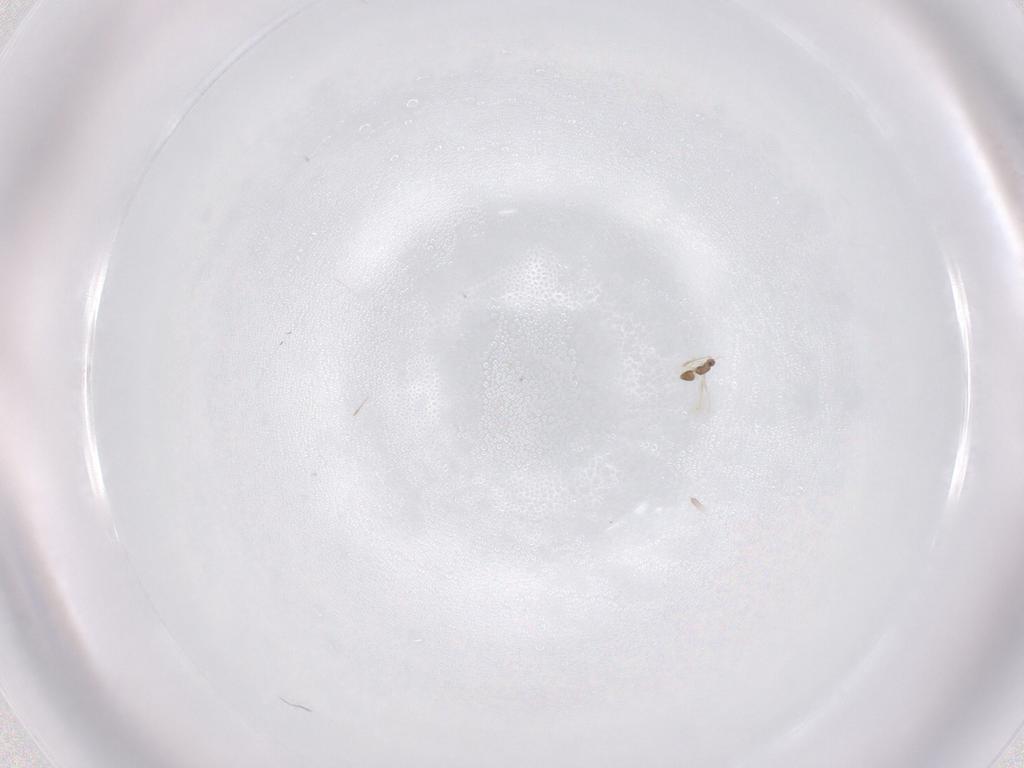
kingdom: Animalia
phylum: Arthropoda
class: Insecta
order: Hymenoptera
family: Mymaridae
